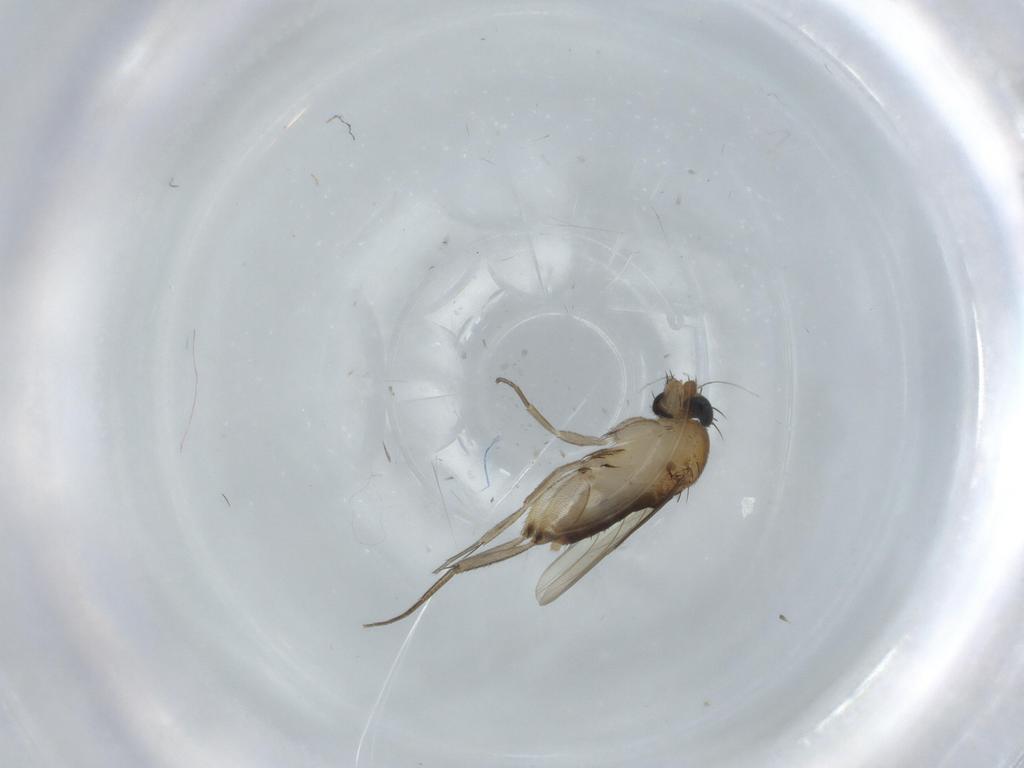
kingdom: Animalia
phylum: Arthropoda
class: Insecta
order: Diptera
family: Phoridae
